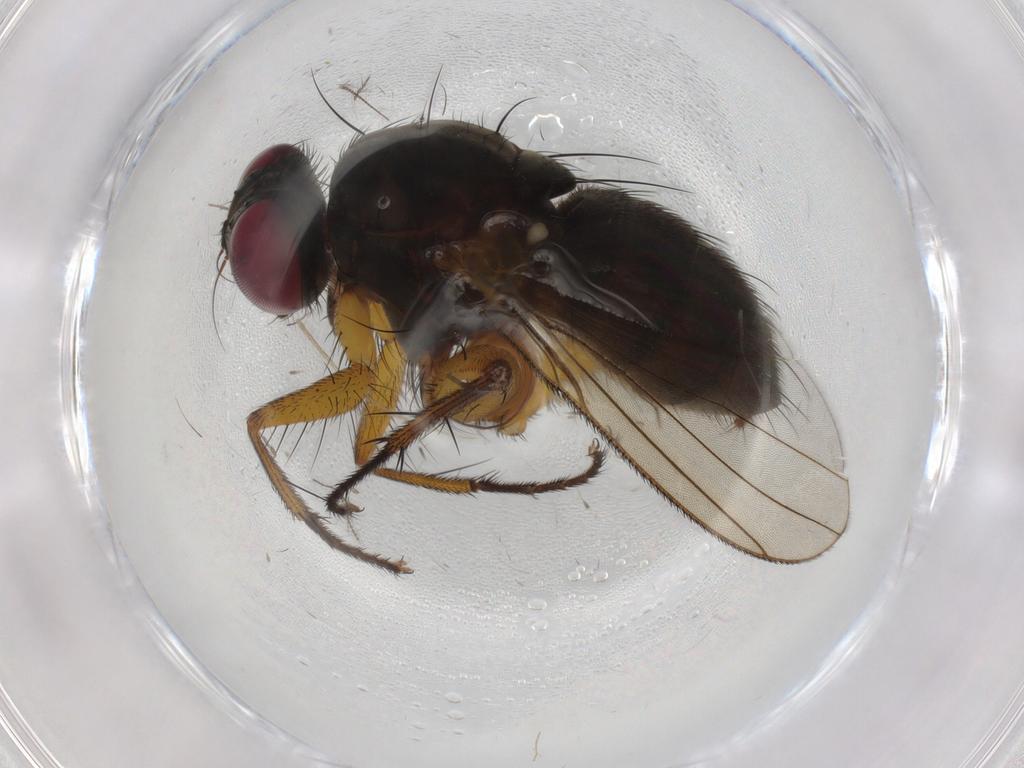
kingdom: Animalia
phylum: Arthropoda
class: Insecta
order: Diptera
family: Muscidae
